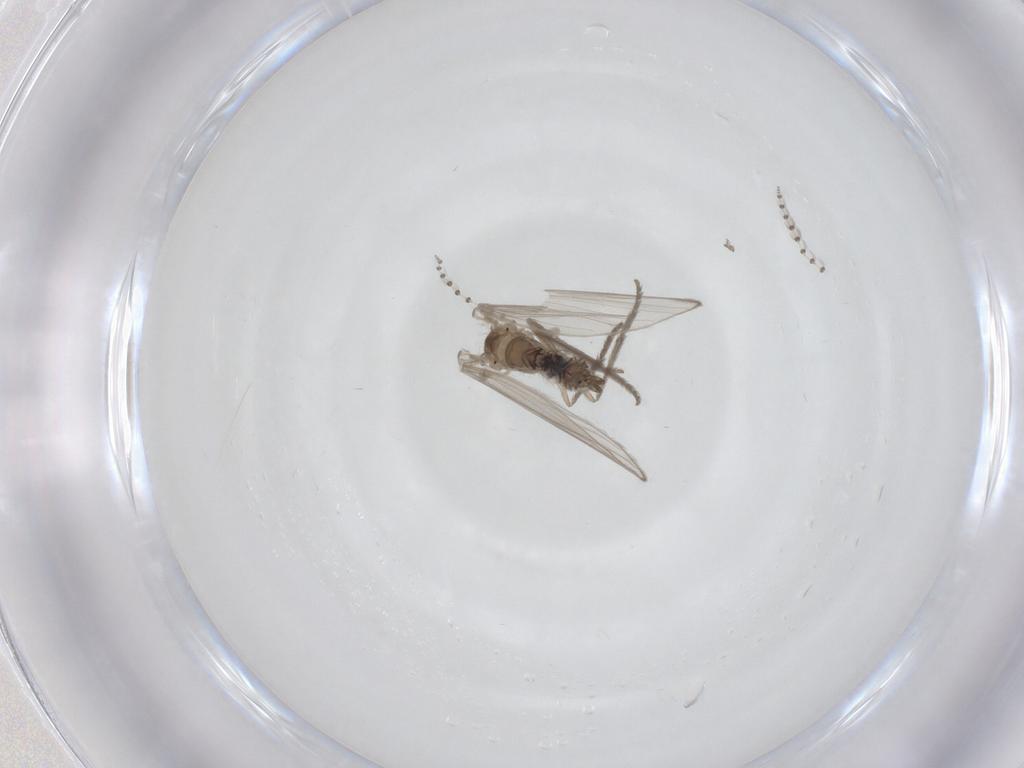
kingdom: Animalia
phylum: Arthropoda
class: Insecta
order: Diptera
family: Psychodidae
